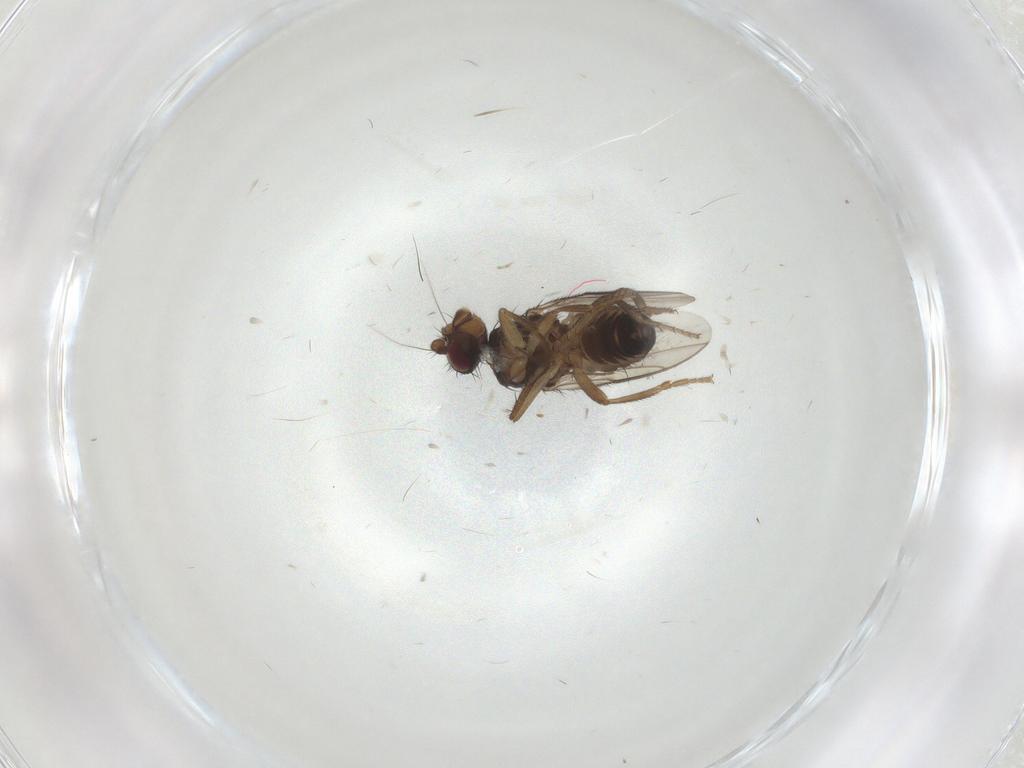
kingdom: Animalia
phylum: Arthropoda
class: Insecta
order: Diptera
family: Sphaeroceridae
